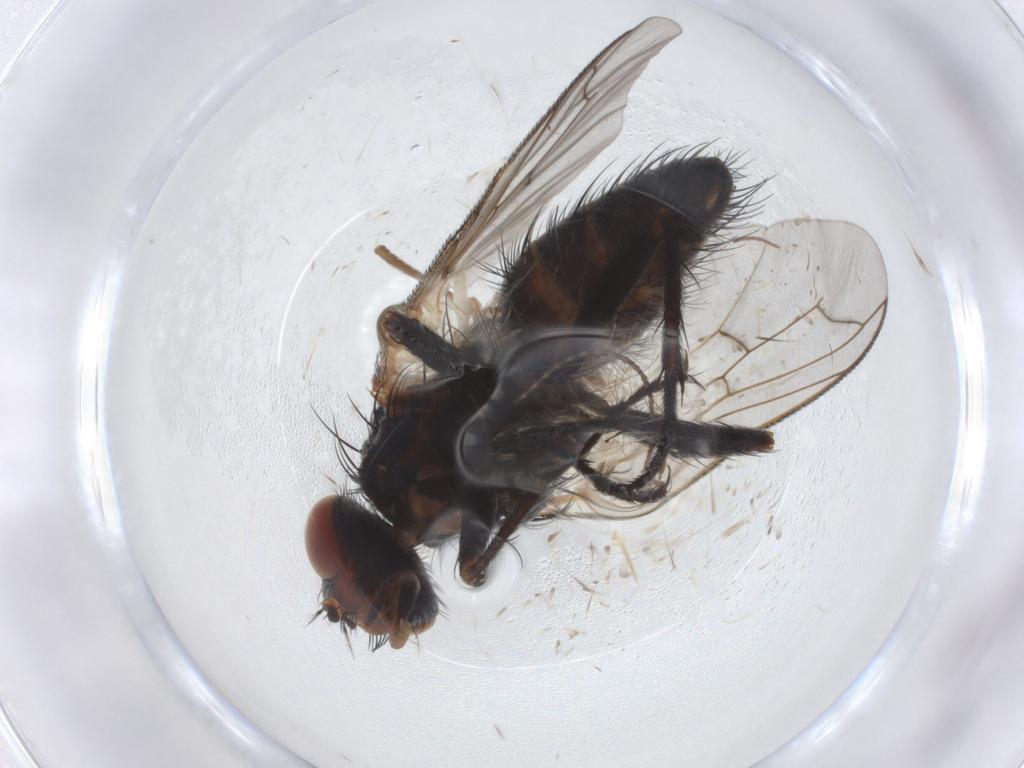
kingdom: Animalia
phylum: Arthropoda
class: Insecta
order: Diptera
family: Tachinidae
